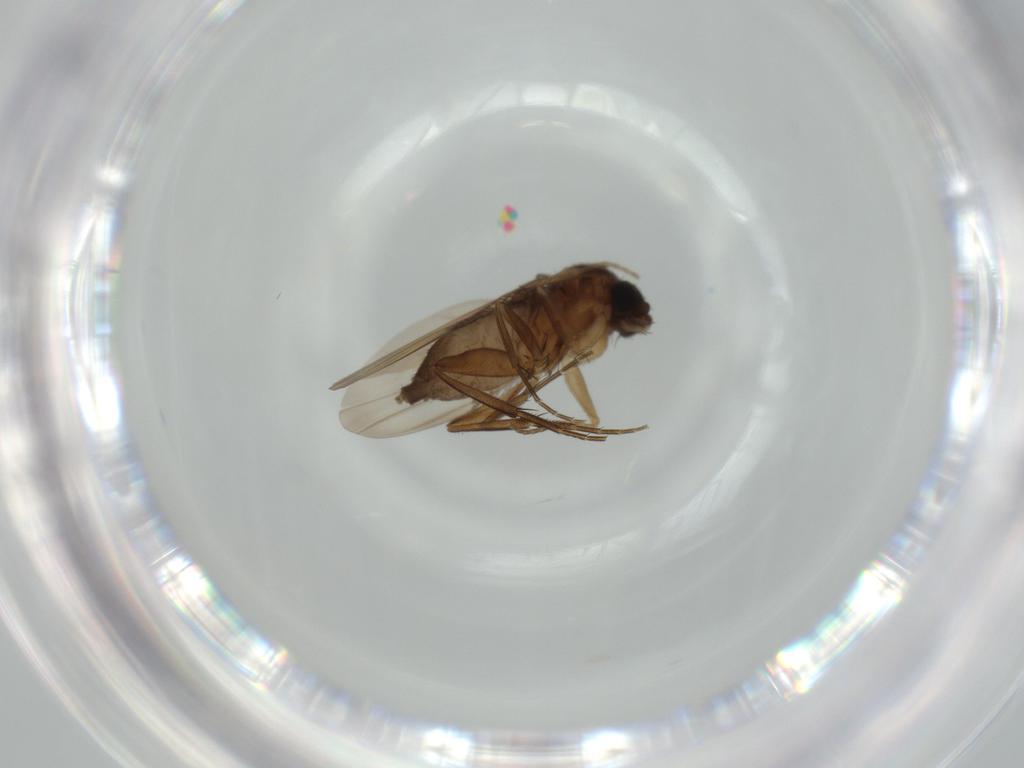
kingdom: Animalia
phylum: Arthropoda
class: Insecta
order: Diptera
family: Phoridae
